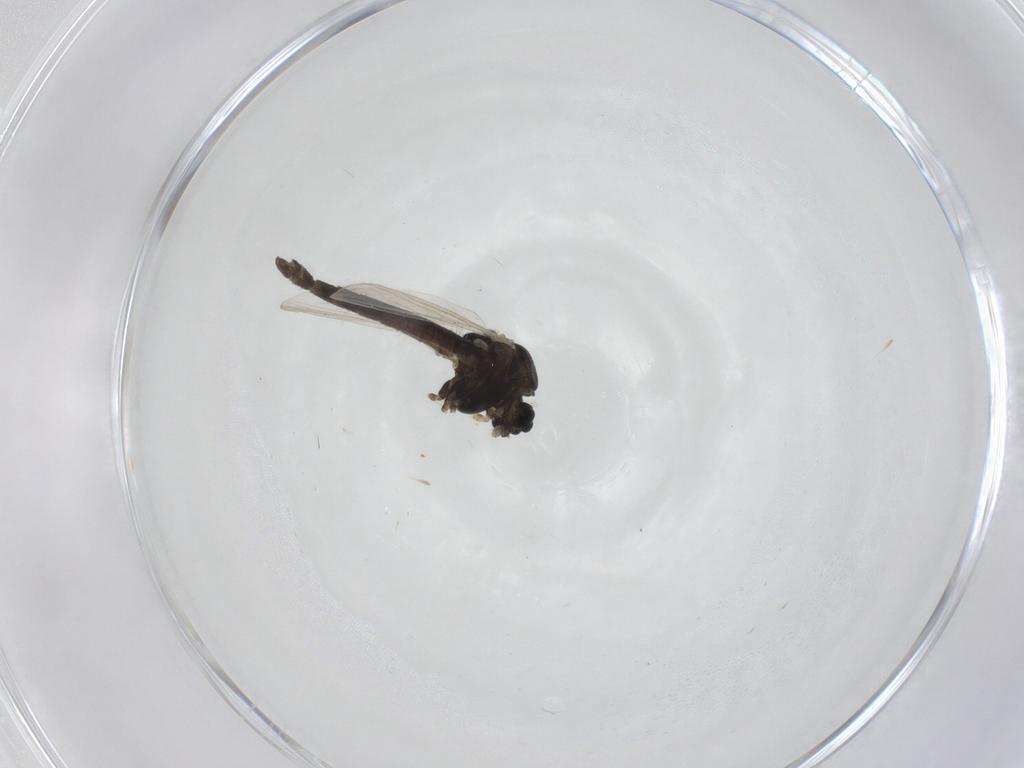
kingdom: Animalia
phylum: Arthropoda
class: Insecta
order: Diptera
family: Chironomidae
